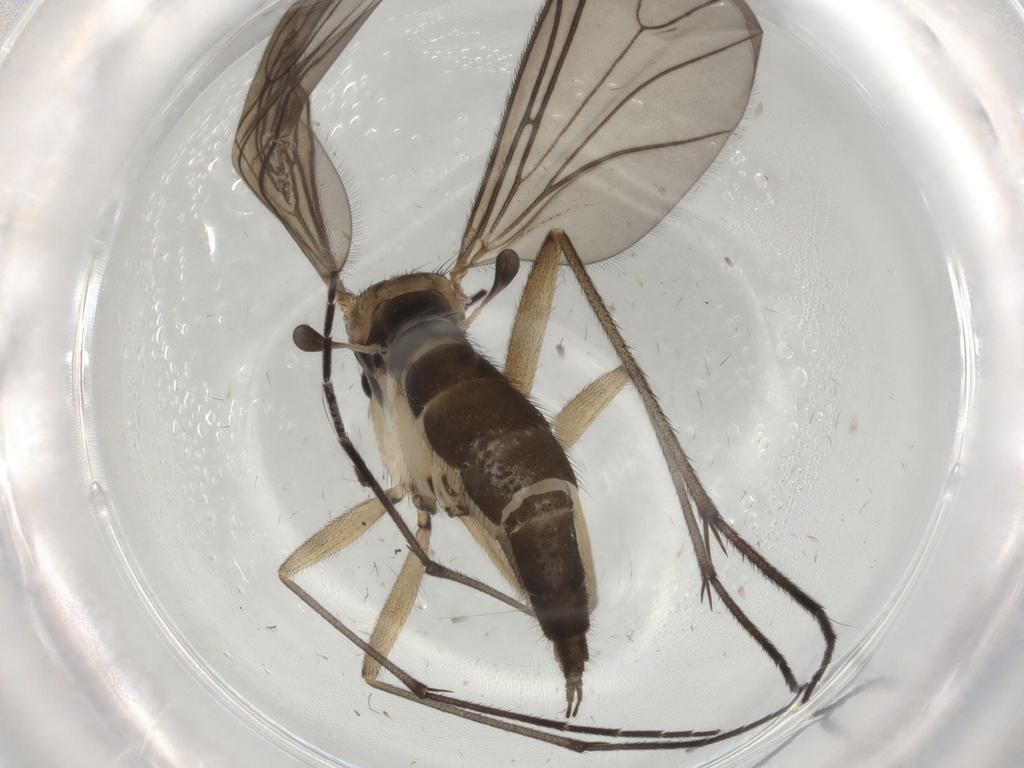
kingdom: Animalia
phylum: Arthropoda
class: Insecta
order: Diptera
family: Sciaridae
